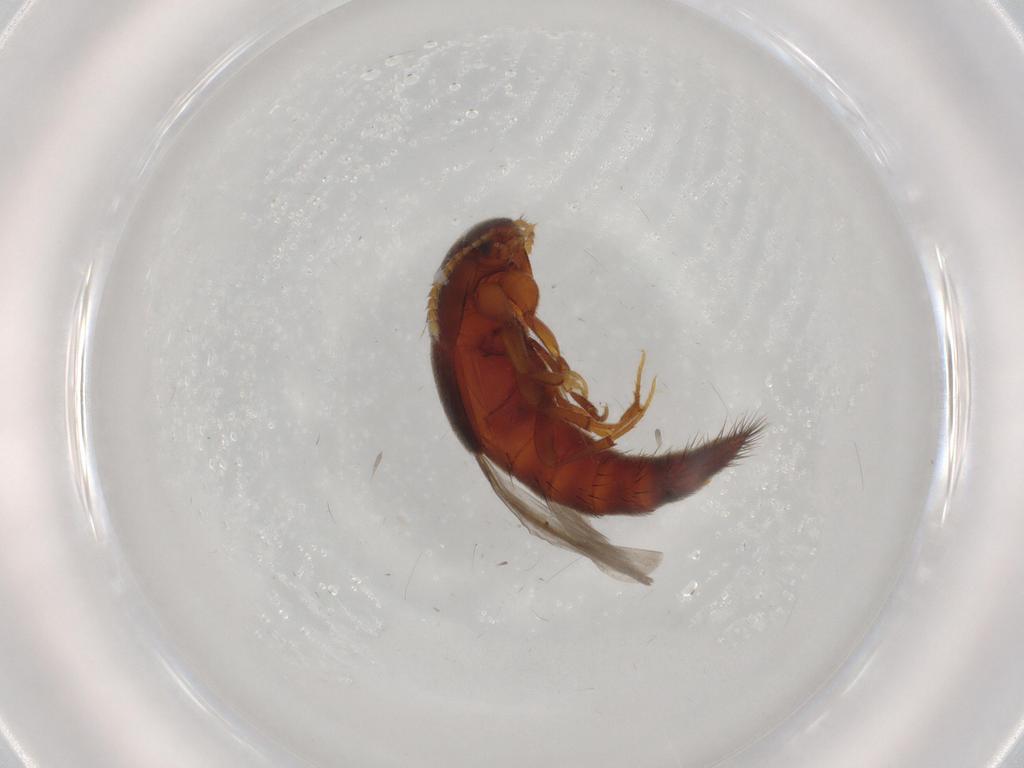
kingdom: Animalia
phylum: Arthropoda
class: Insecta
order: Coleoptera
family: Staphylinidae
